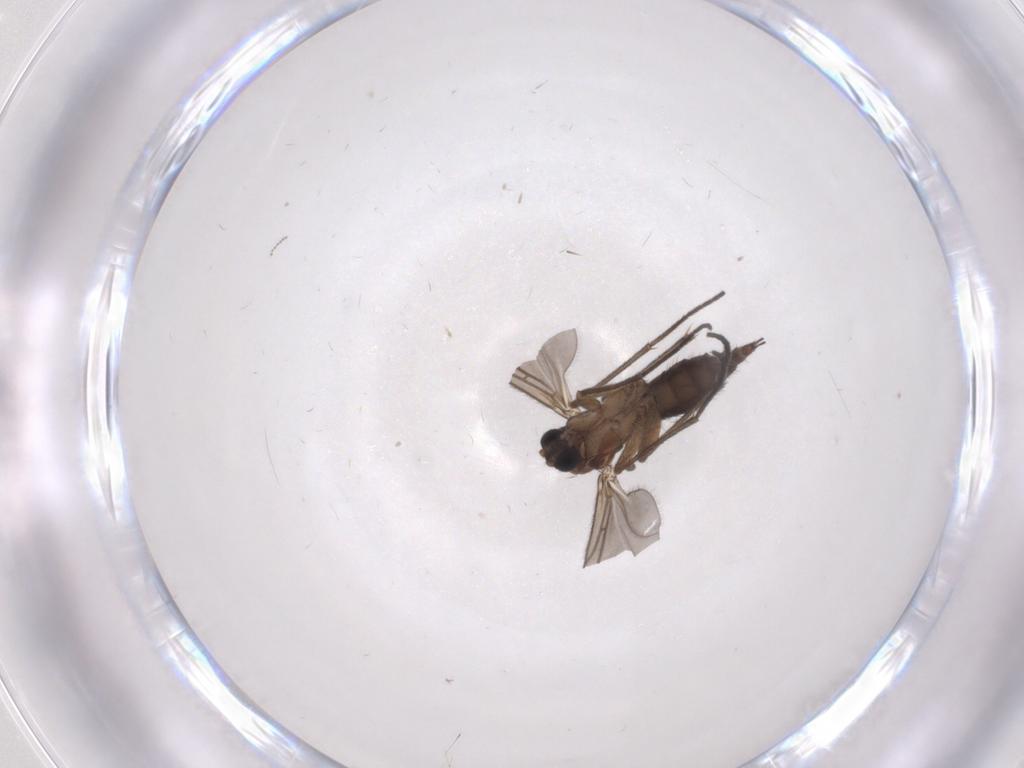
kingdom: Animalia
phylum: Arthropoda
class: Insecta
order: Diptera
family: Sciaridae
